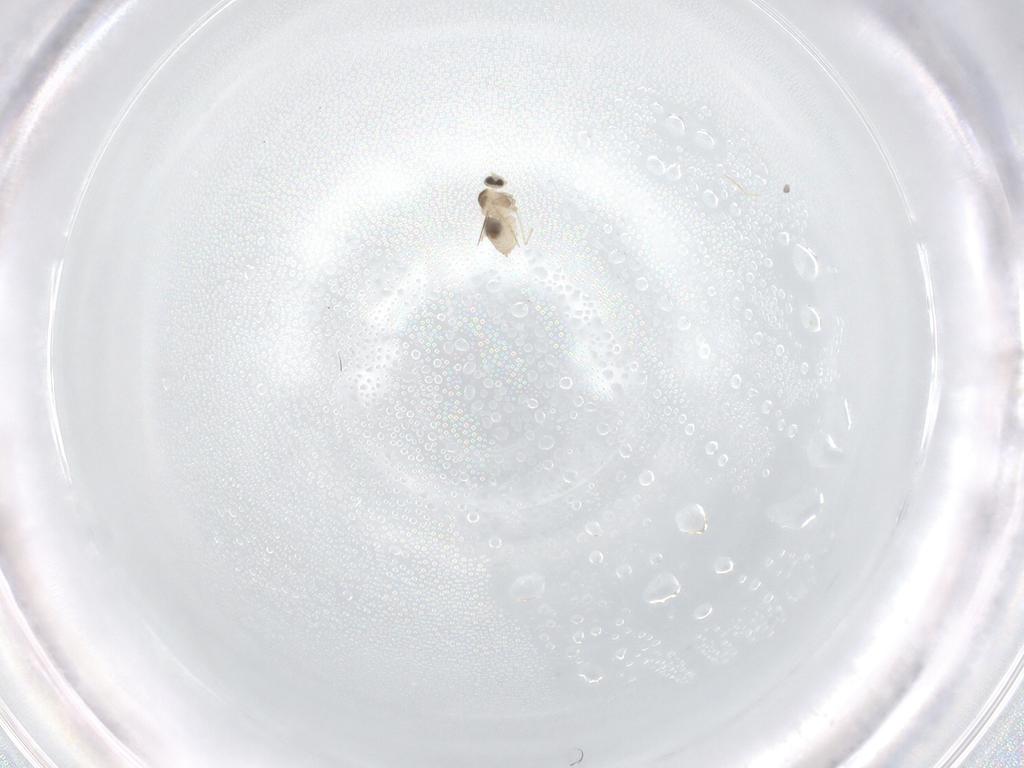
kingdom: Animalia
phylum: Arthropoda
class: Insecta
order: Diptera
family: Cecidomyiidae
